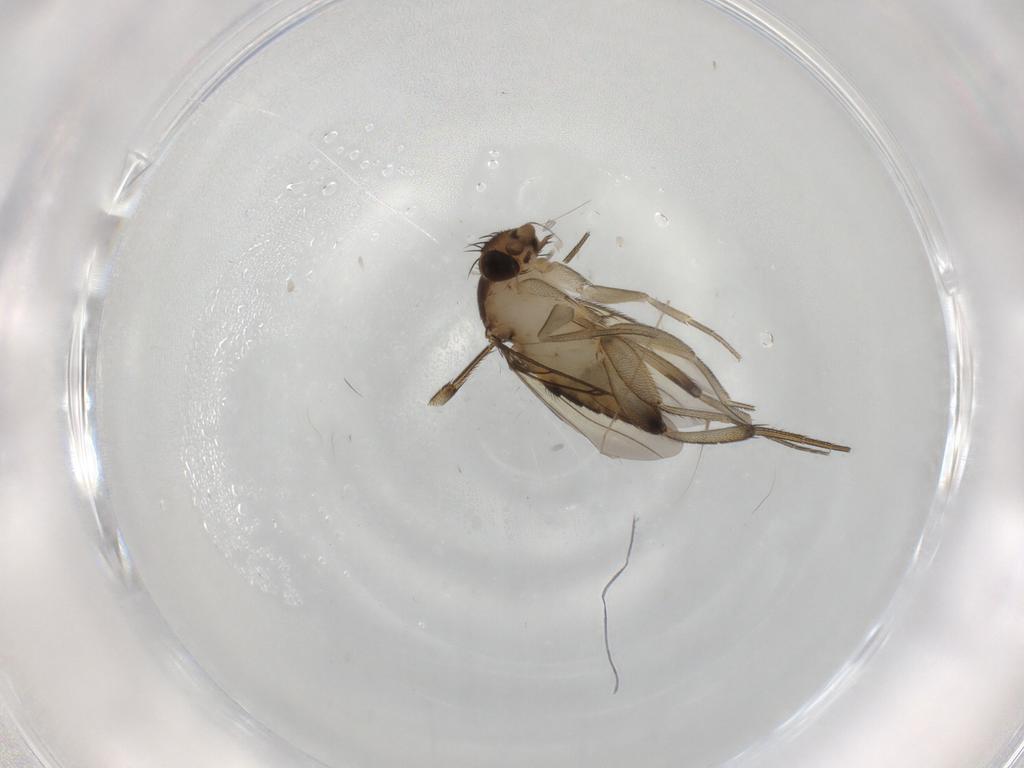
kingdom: Animalia
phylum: Arthropoda
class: Insecta
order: Diptera
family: Phoridae
